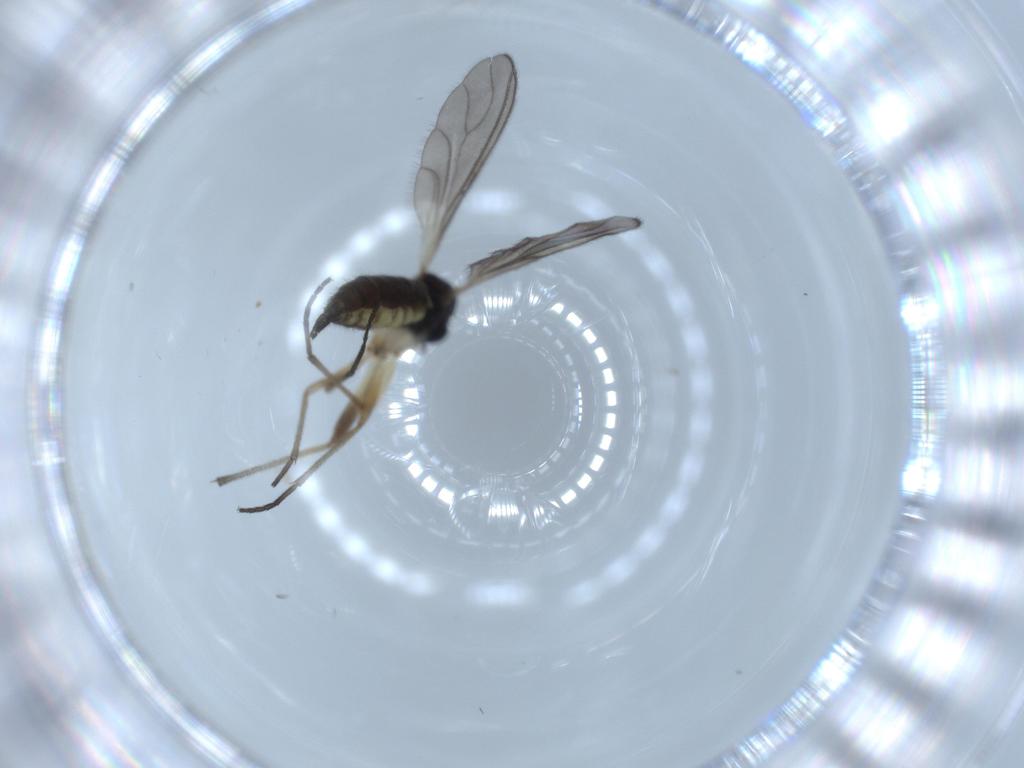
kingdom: Animalia
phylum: Arthropoda
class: Insecta
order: Diptera
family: Sciaridae
